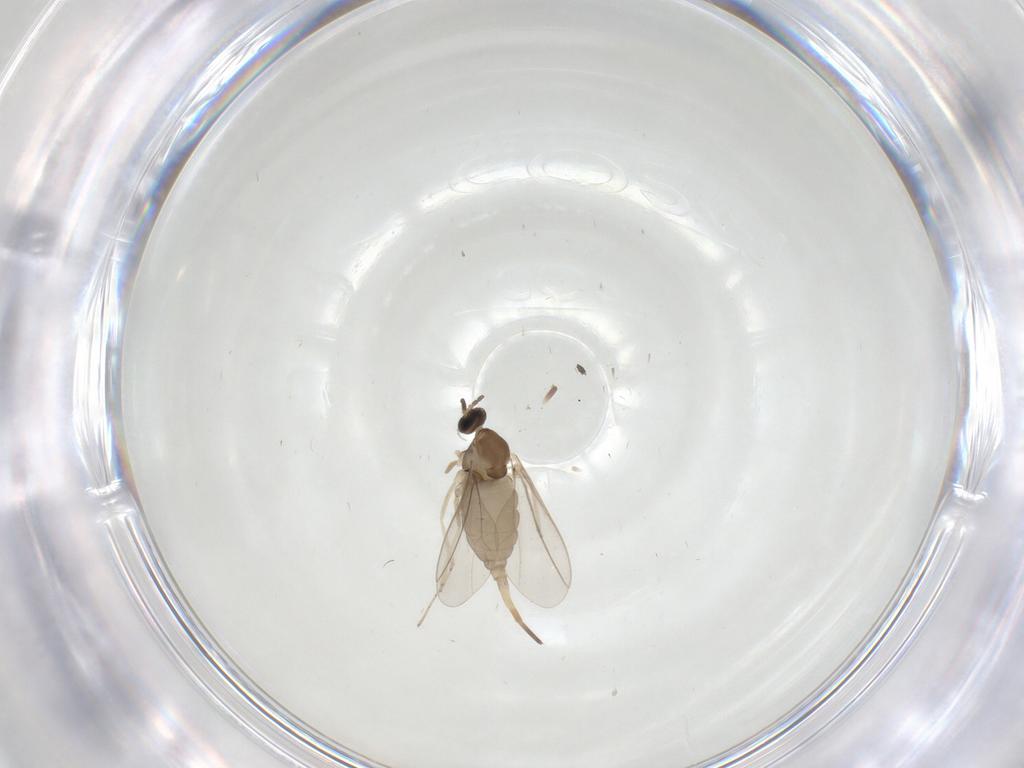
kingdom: Animalia
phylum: Arthropoda
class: Insecta
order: Diptera
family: Cecidomyiidae
